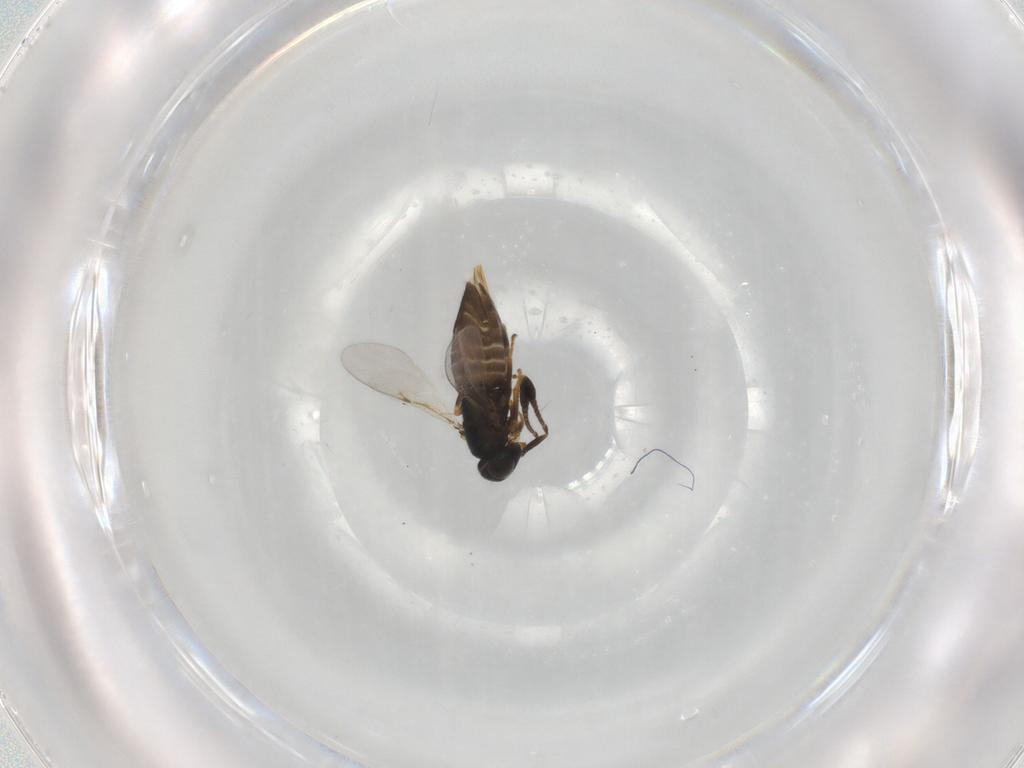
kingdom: Animalia
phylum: Arthropoda
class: Insecta
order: Hymenoptera
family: Vespidae
